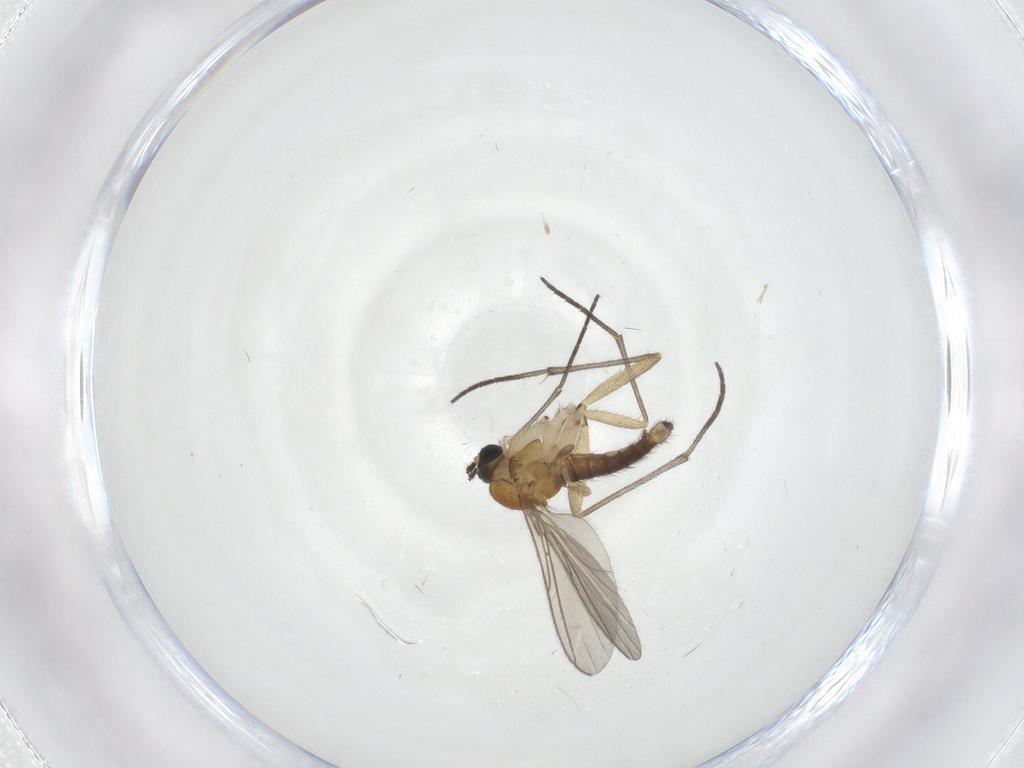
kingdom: Animalia
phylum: Arthropoda
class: Insecta
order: Diptera
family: Sciaridae
